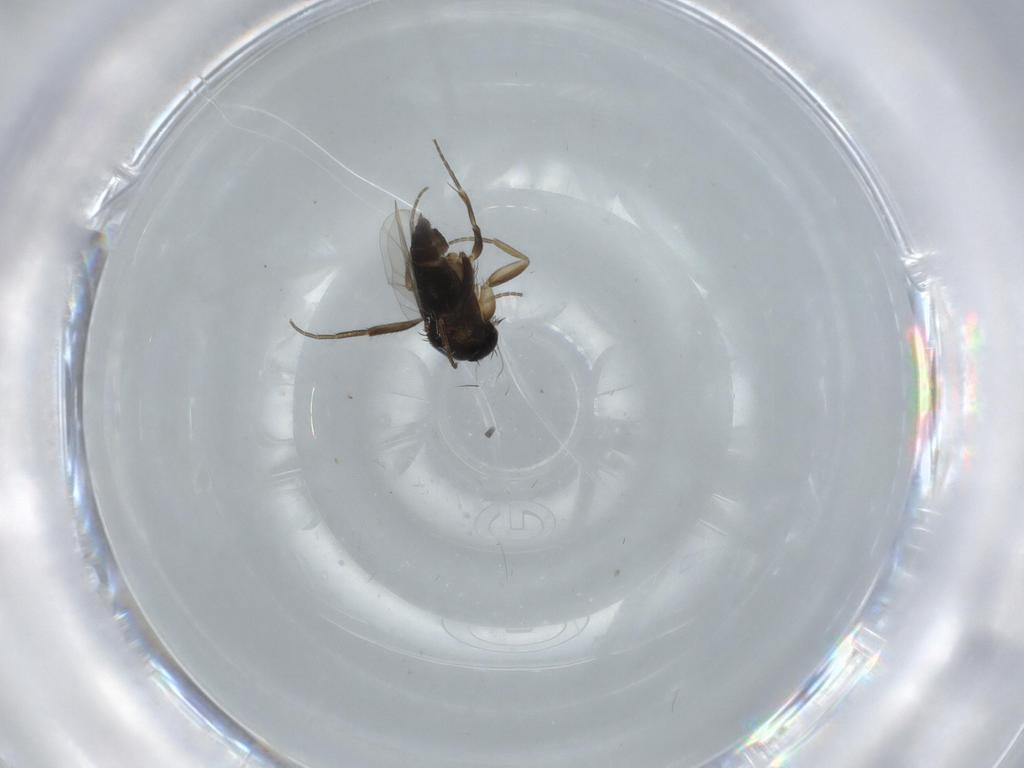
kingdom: Animalia
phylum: Arthropoda
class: Insecta
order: Diptera
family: Phoridae
